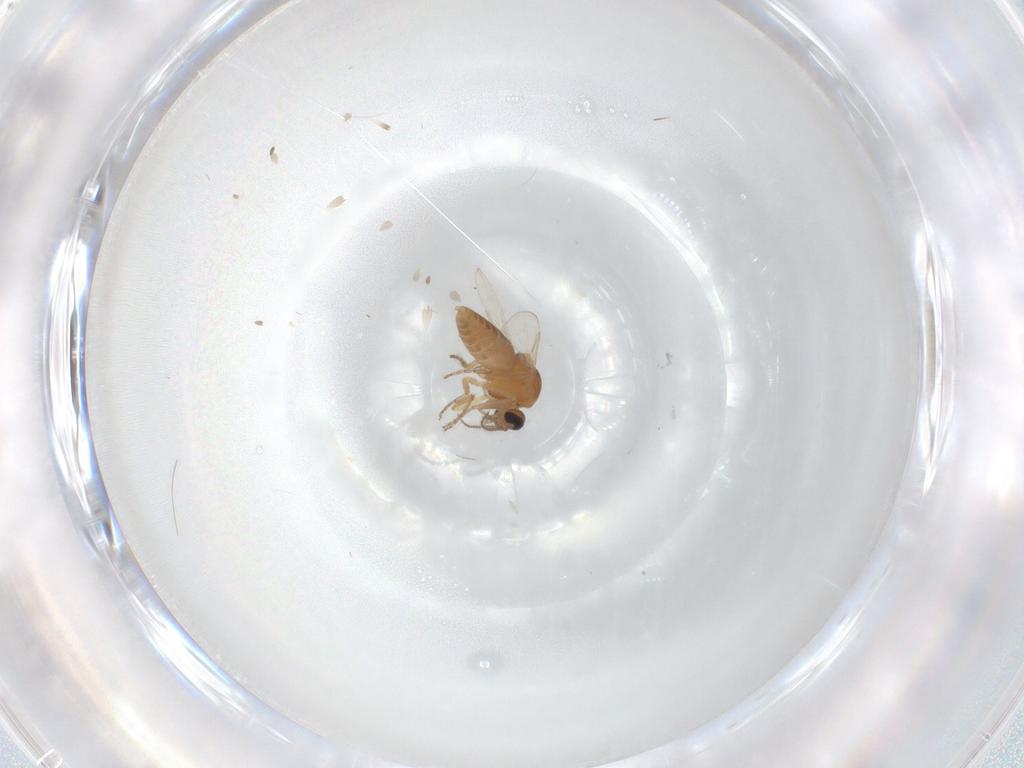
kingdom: Animalia
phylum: Arthropoda
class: Insecta
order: Diptera
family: Ceratopogonidae
